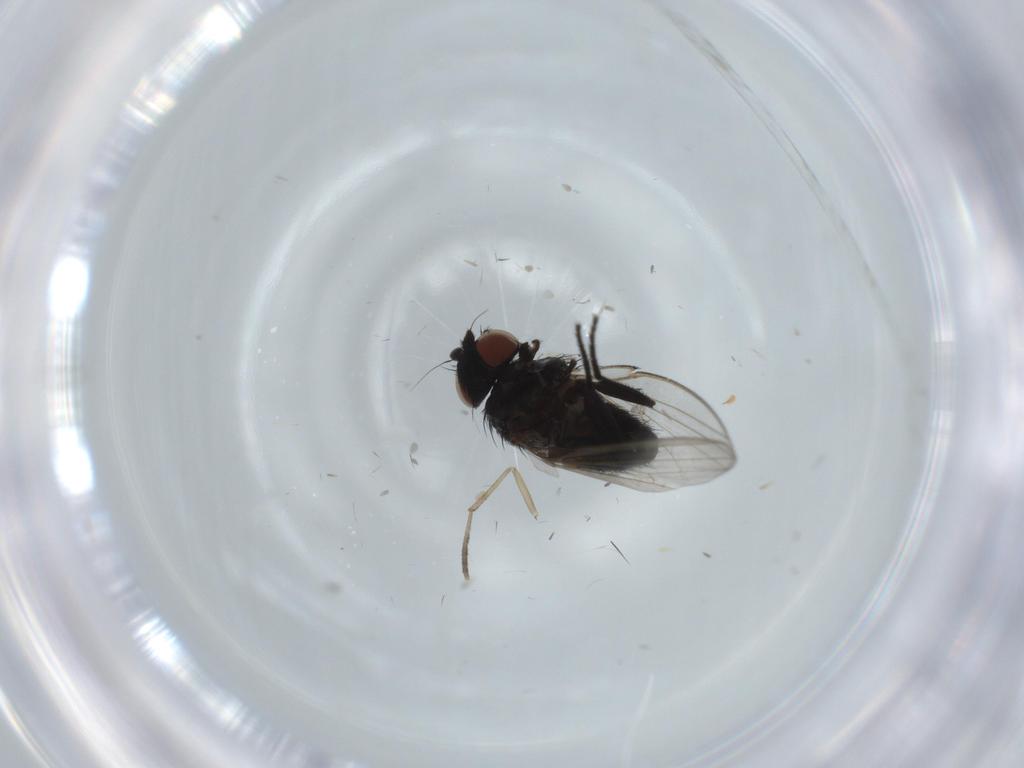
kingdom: Animalia
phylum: Arthropoda
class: Insecta
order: Diptera
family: Milichiidae
